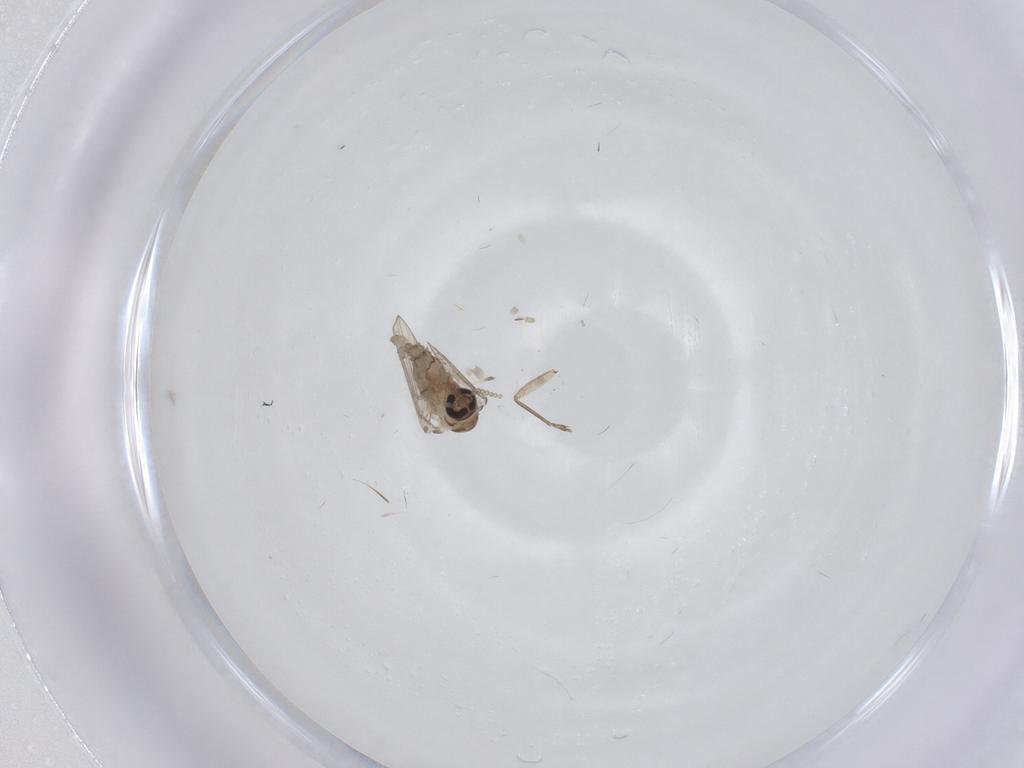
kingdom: Animalia
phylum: Arthropoda
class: Insecta
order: Diptera
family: Psychodidae
